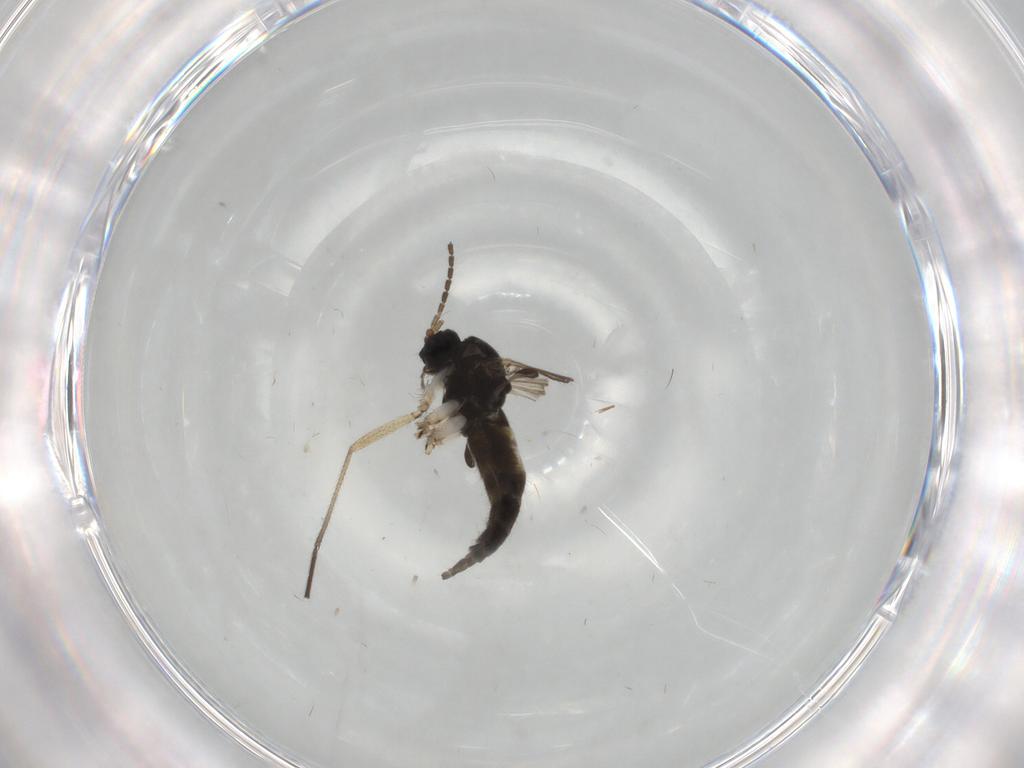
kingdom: Animalia
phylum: Arthropoda
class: Insecta
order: Diptera
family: Sciaridae
